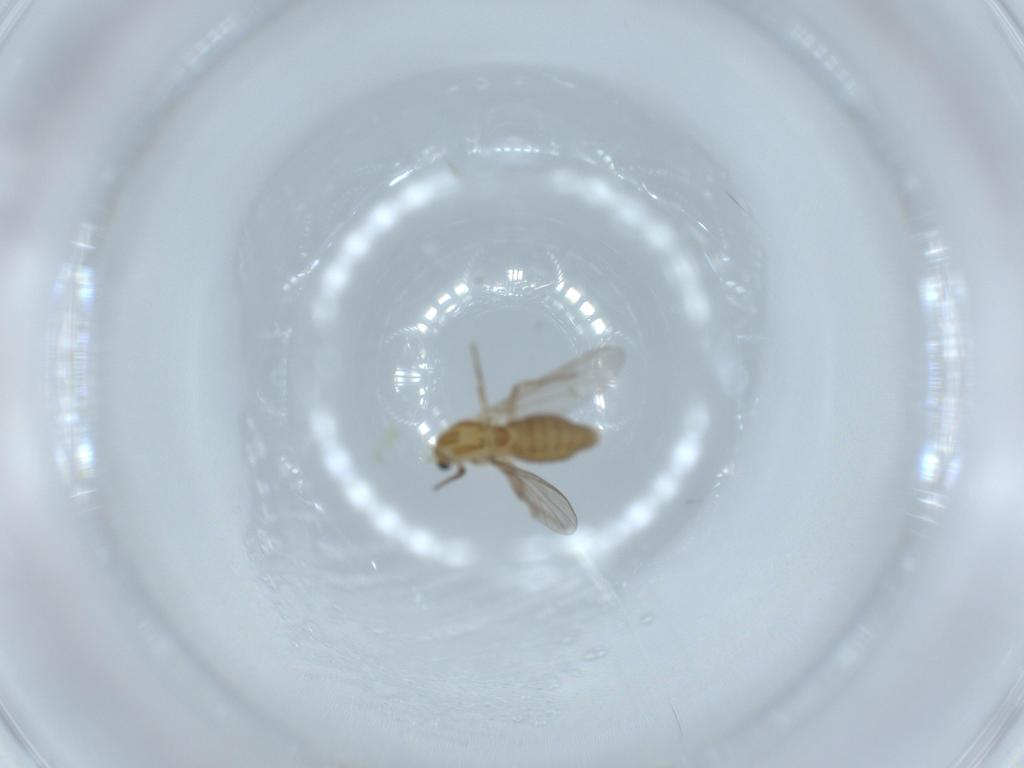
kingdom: Animalia
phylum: Arthropoda
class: Insecta
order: Diptera
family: Chironomidae
